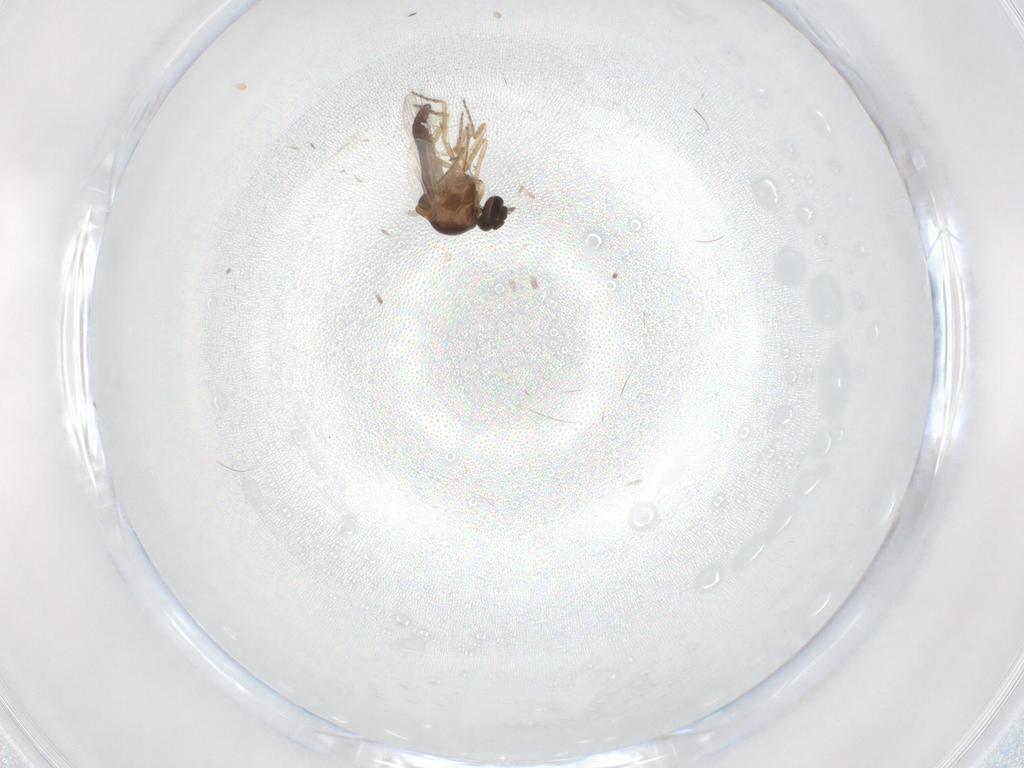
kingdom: Animalia
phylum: Arthropoda
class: Insecta
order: Diptera
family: Ceratopogonidae
